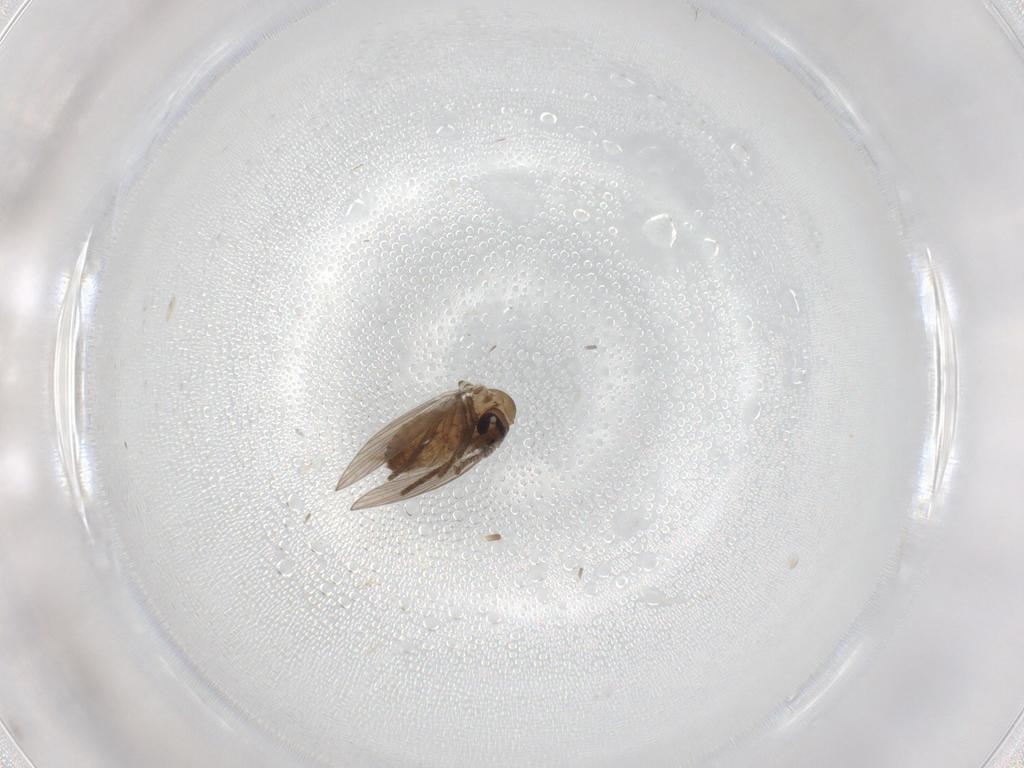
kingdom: Animalia
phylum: Arthropoda
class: Insecta
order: Diptera
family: Psychodidae
